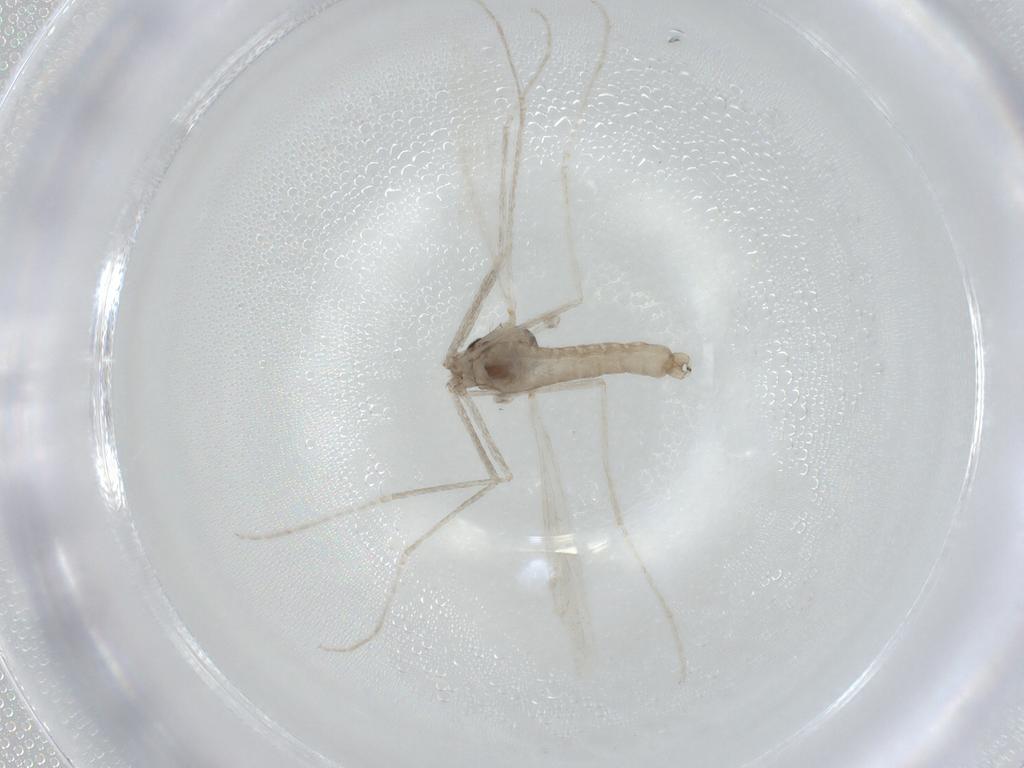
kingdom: Animalia
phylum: Arthropoda
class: Insecta
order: Diptera
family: Cecidomyiidae
